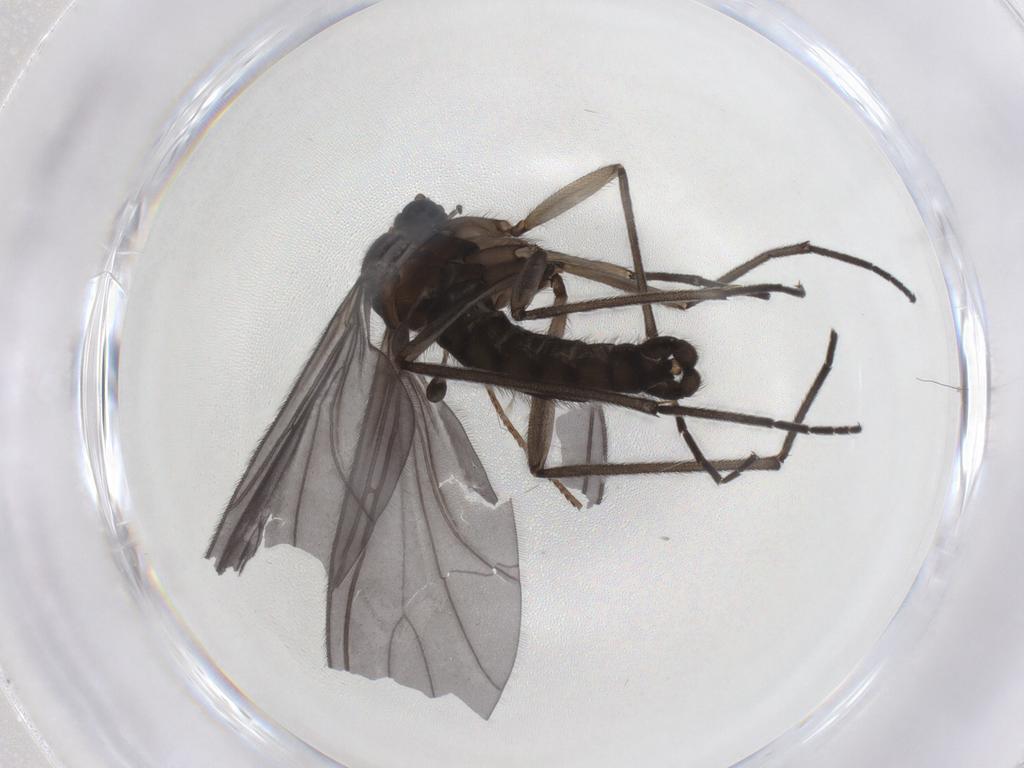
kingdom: Animalia
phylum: Arthropoda
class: Insecta
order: Diptera
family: Sciaridae
